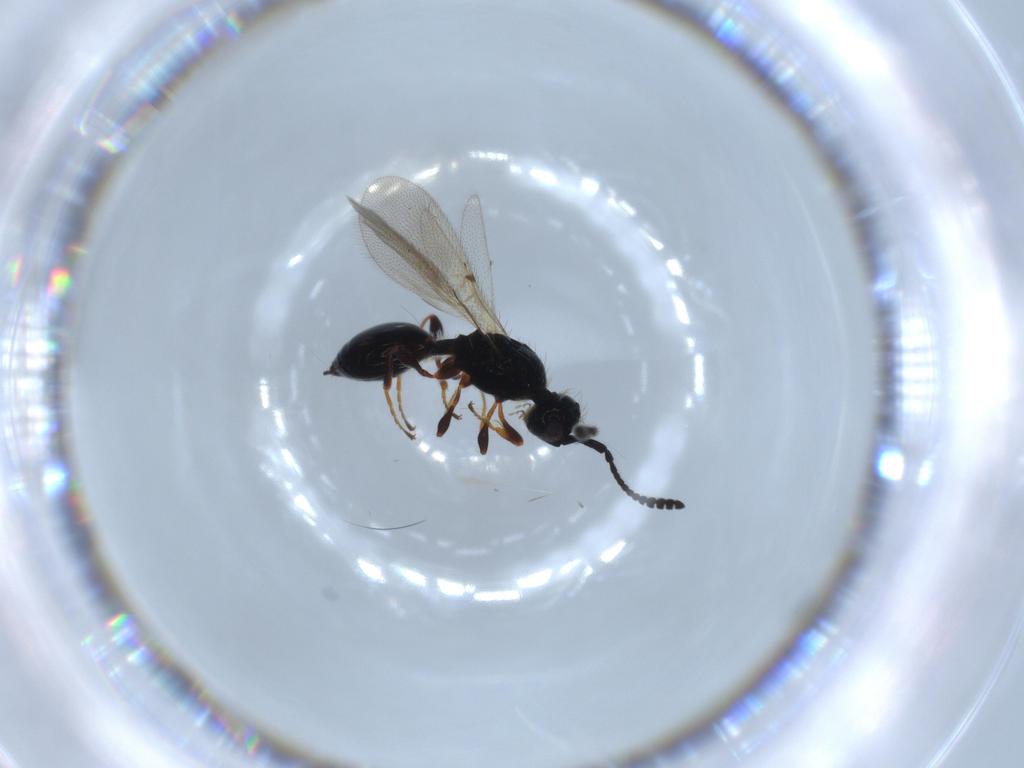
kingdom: Animalia
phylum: Arthropoda
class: Insecta
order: Hymenoptera
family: Diapriidae
